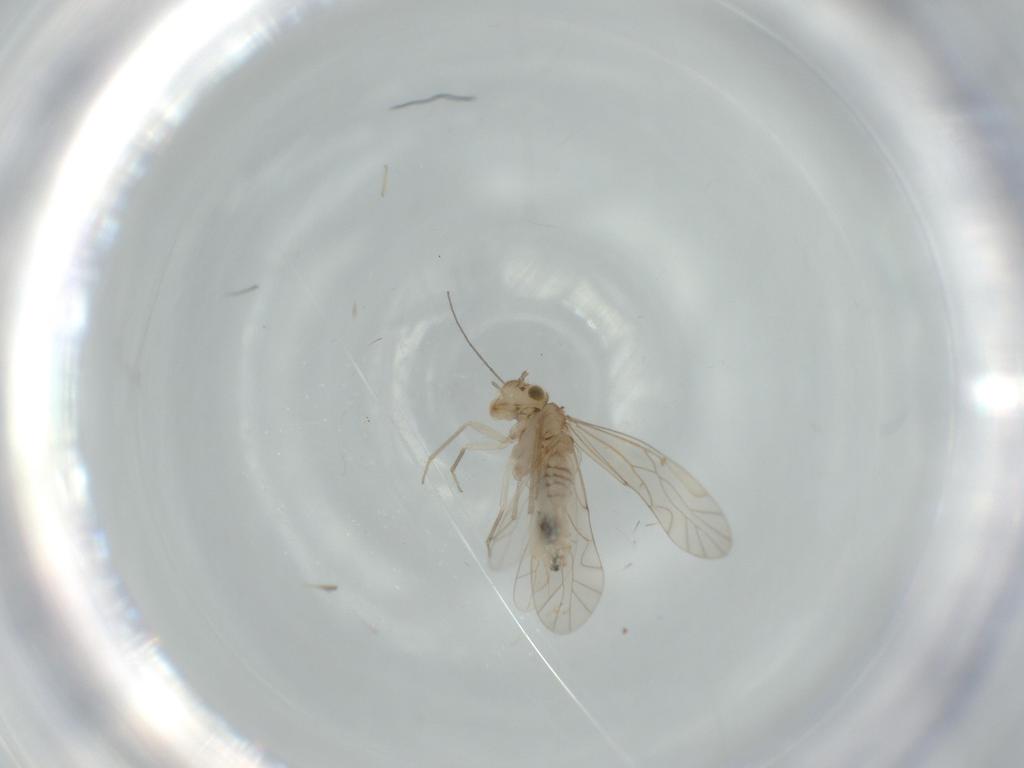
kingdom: Animalia
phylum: Arthropoda
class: Insecta
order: Psocodea
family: Lachesillidae
